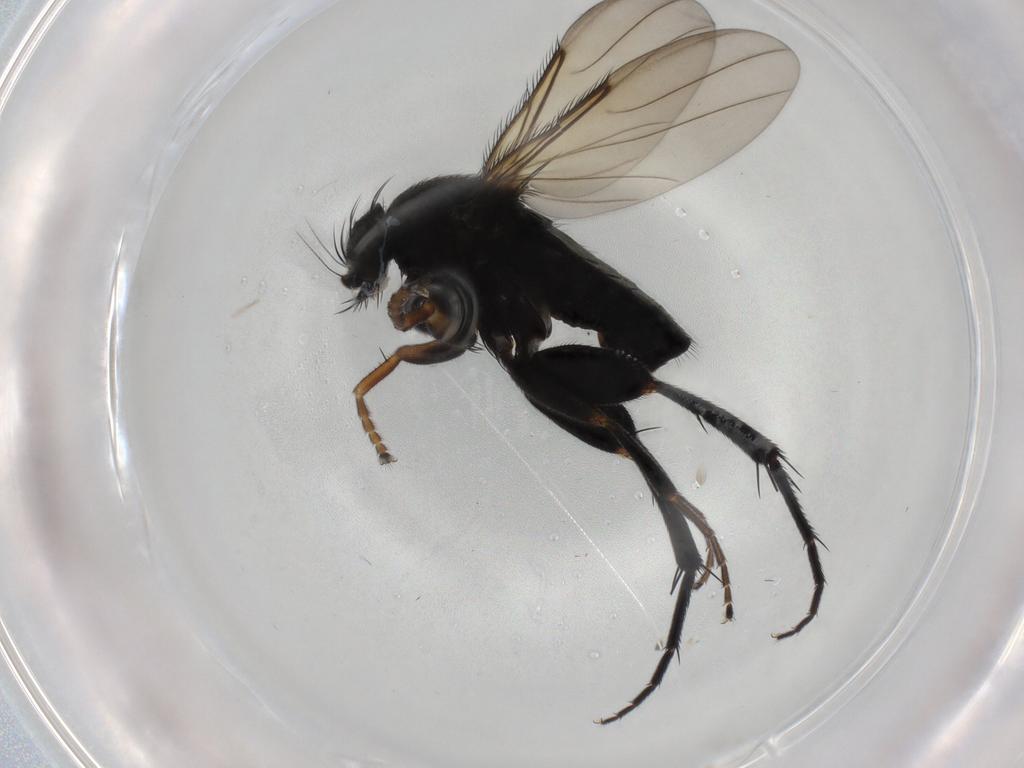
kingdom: Animalia
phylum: Arthropoda
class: Insecta
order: Diptera
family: Phoridae
